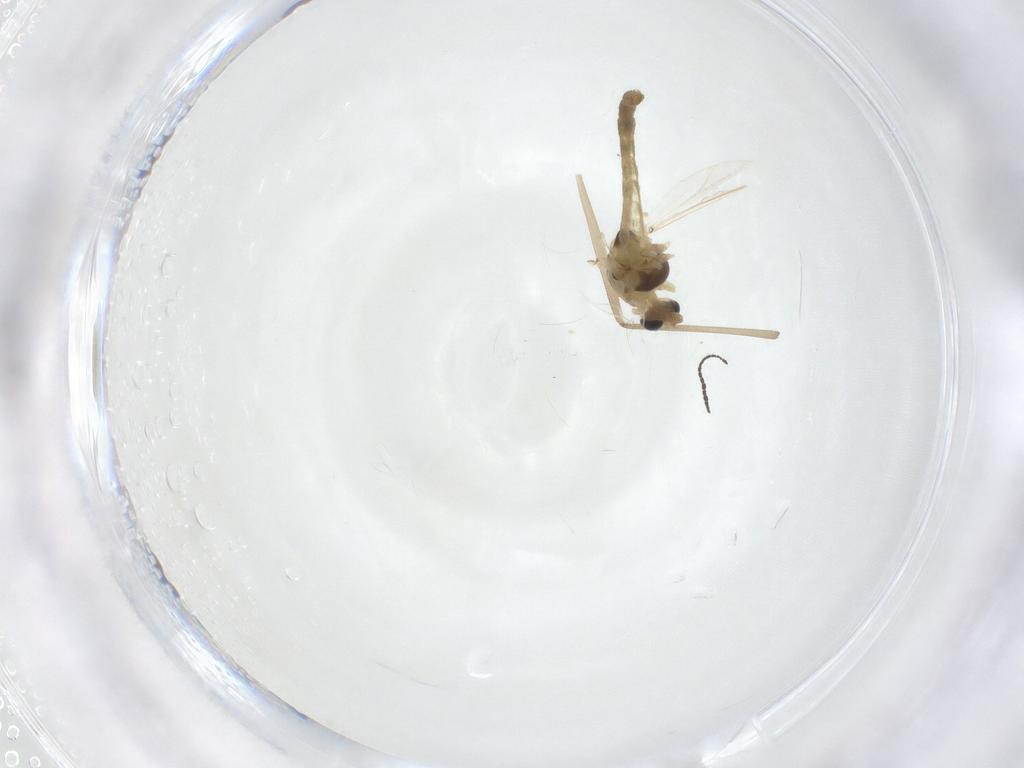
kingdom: Animalia
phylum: Arthropoda
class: Insecta
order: Diptera
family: Chironomidae
